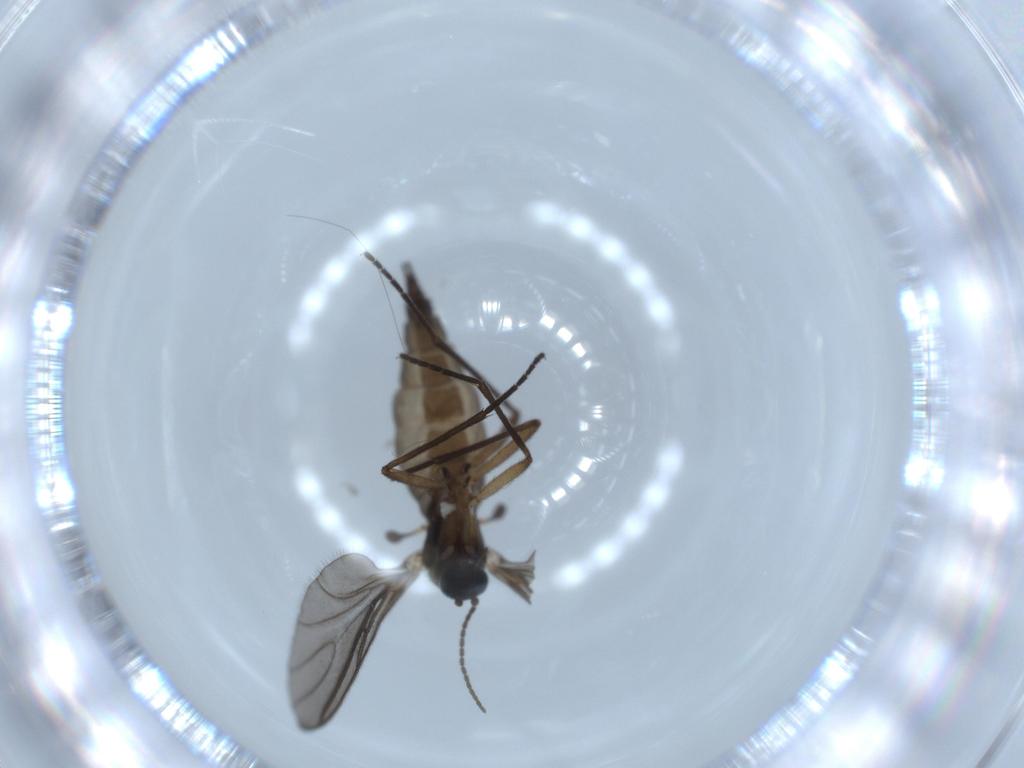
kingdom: Animalia
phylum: Arthropoda
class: Insecta
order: Diptera
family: Sciaridae
